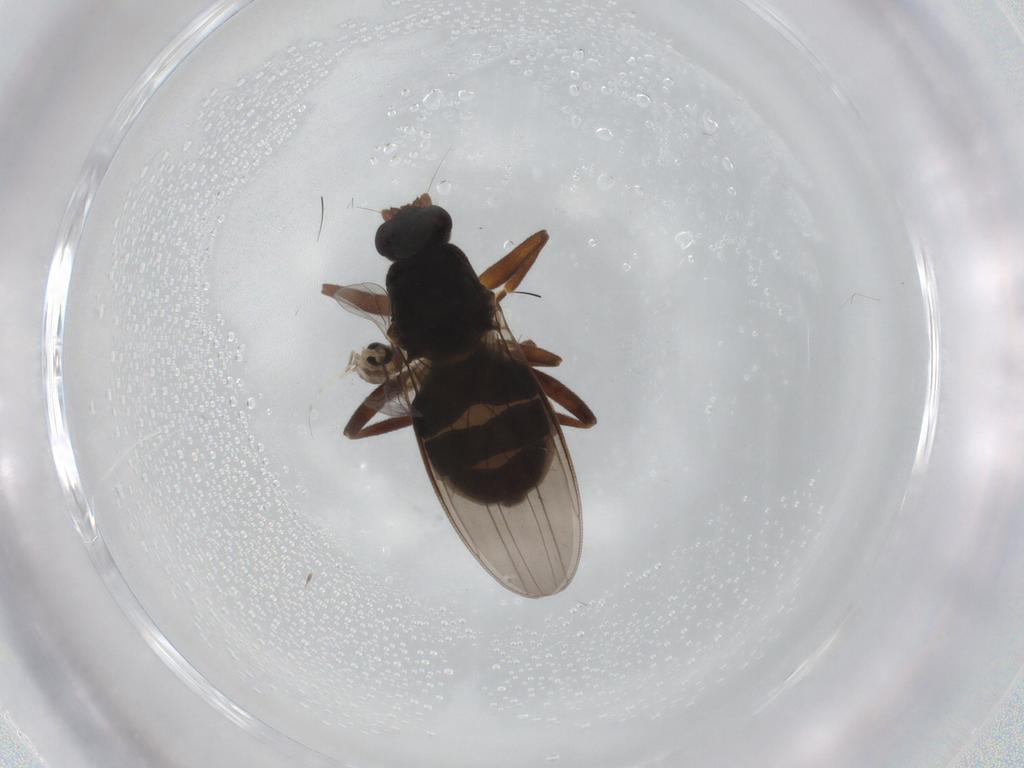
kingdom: Animalia
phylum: Arthropoda
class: Insecta
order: Diptera
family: Sphaeroceridae
